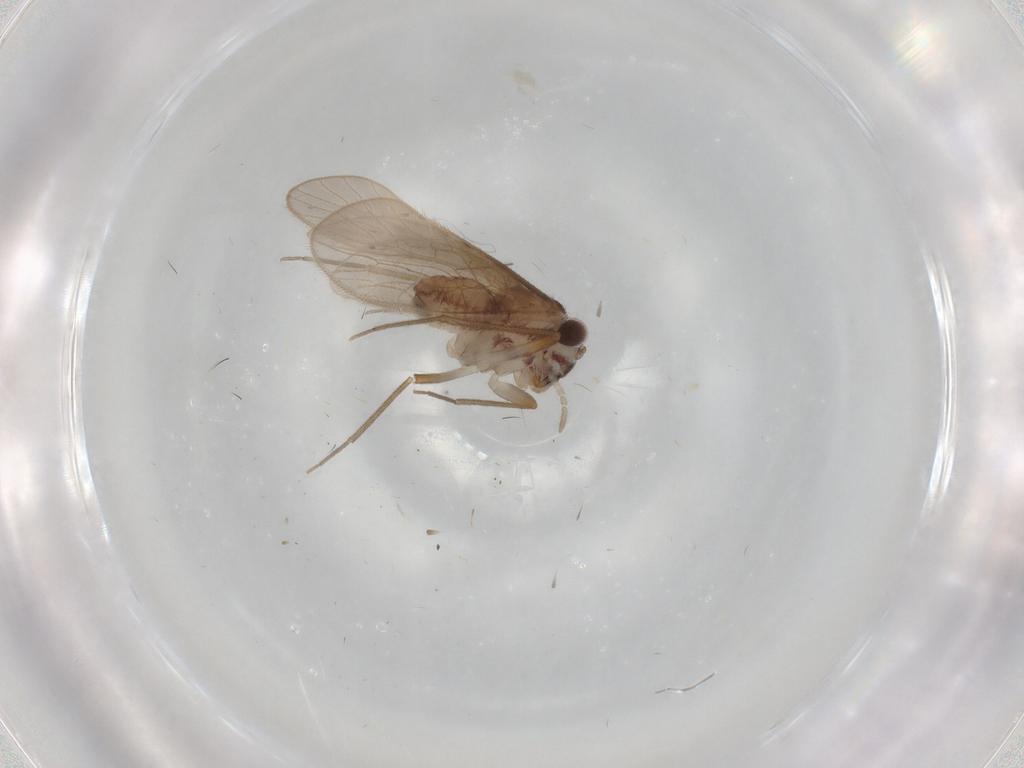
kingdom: Animalia
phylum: Arthropoda
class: Insecta
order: Psocodea
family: Mesopsocidae
